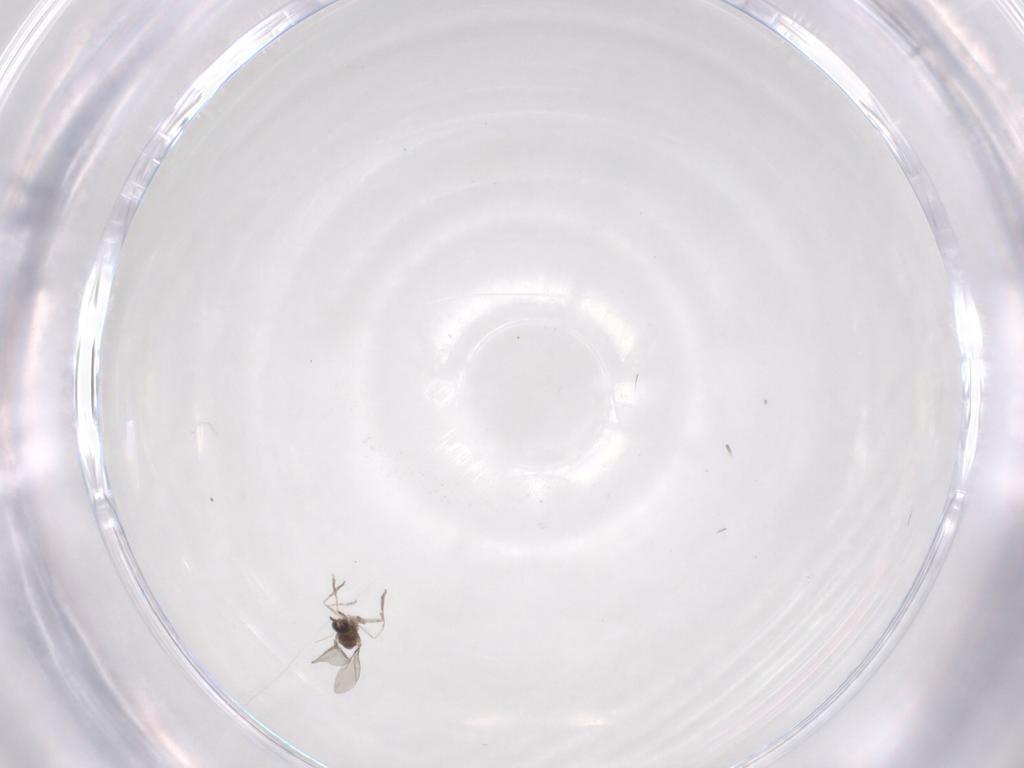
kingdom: Animalia
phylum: Arthropoda
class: Insecta
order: Diptera
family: Cecidomyiidae
